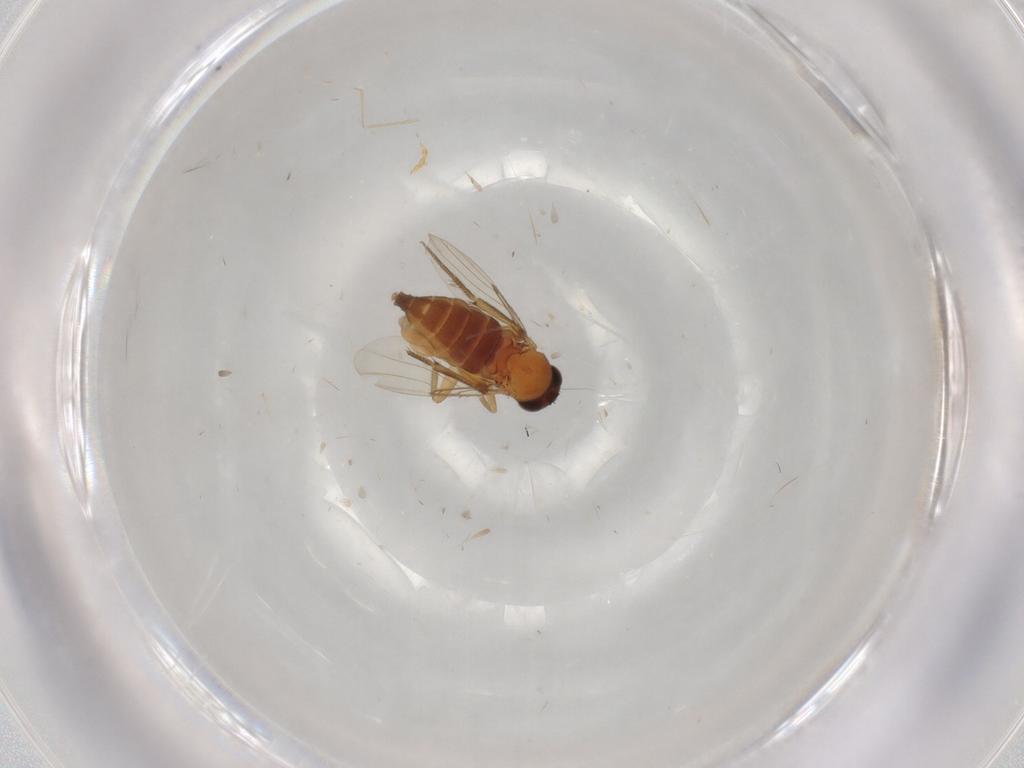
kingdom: Animalia
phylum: Arthropoda
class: Insecta
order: Diptera
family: Phoridae
